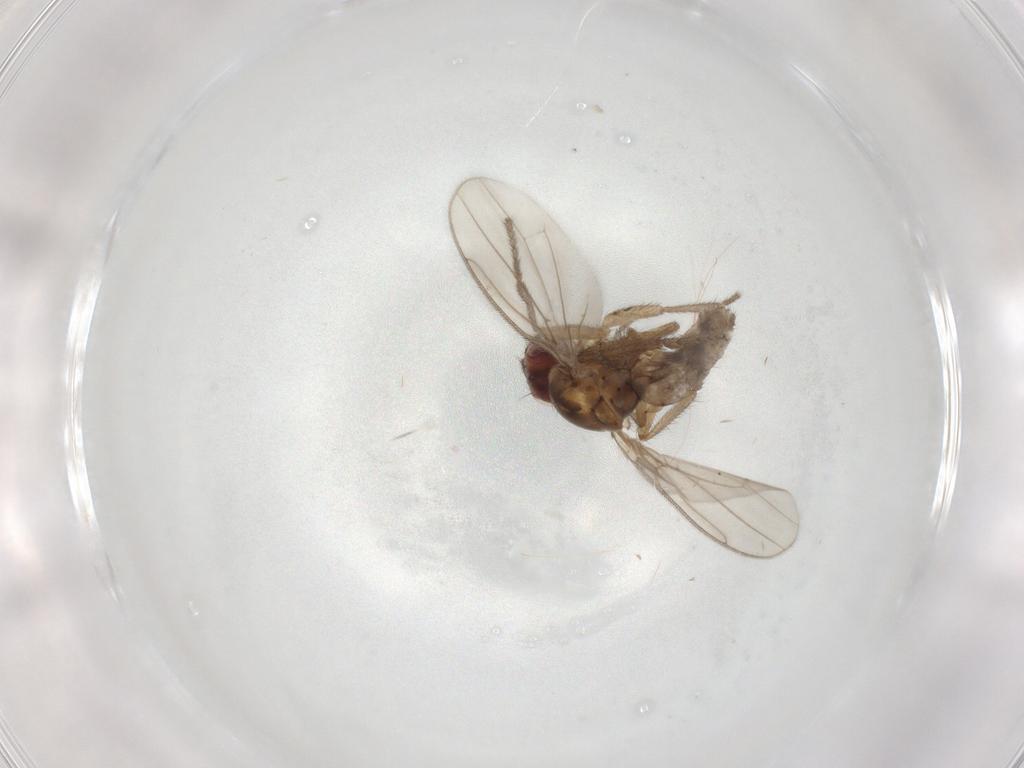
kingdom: Animalia
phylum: Arthropoda
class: Insecta
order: Diptera
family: Sphaeroceridae
